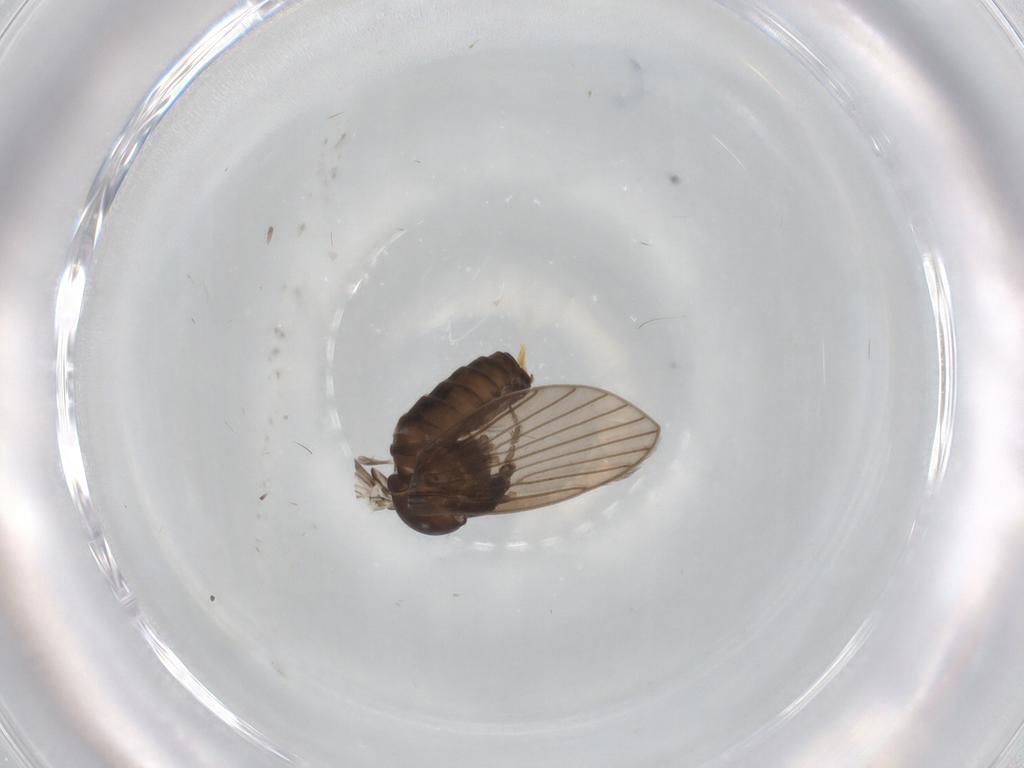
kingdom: Animalia
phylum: Arthropoda
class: Insecta
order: Diptera
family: Psychodidae
